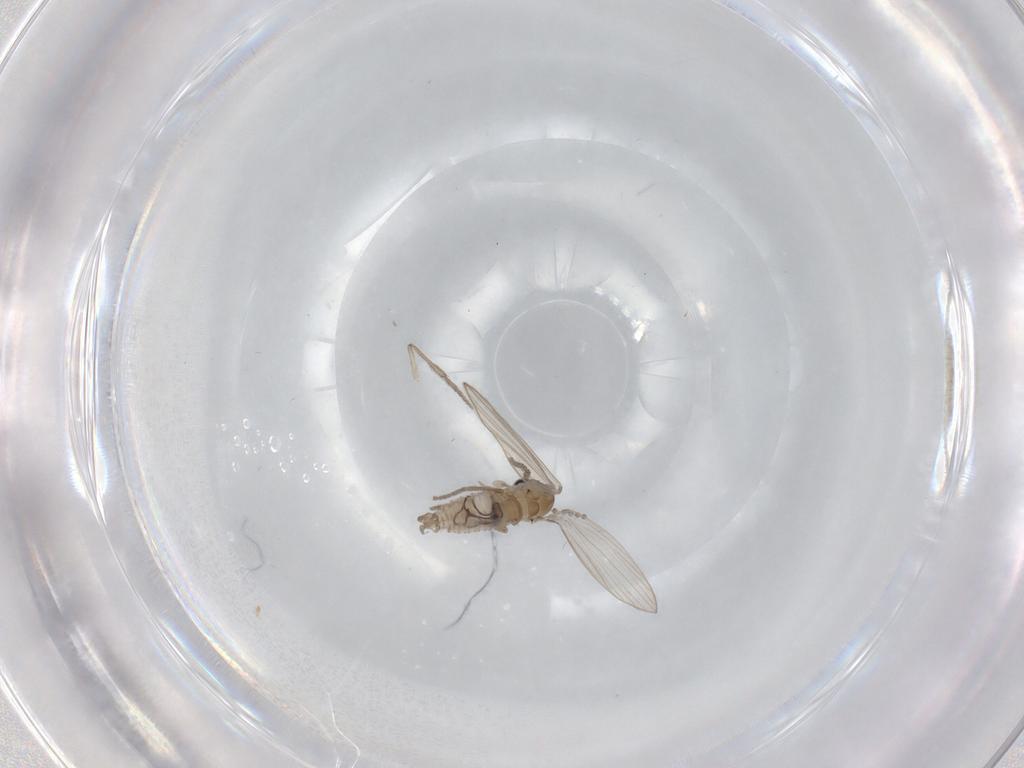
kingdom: Animalia
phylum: Arthropoda
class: Insecta
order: Diptera
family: Psychodidae
